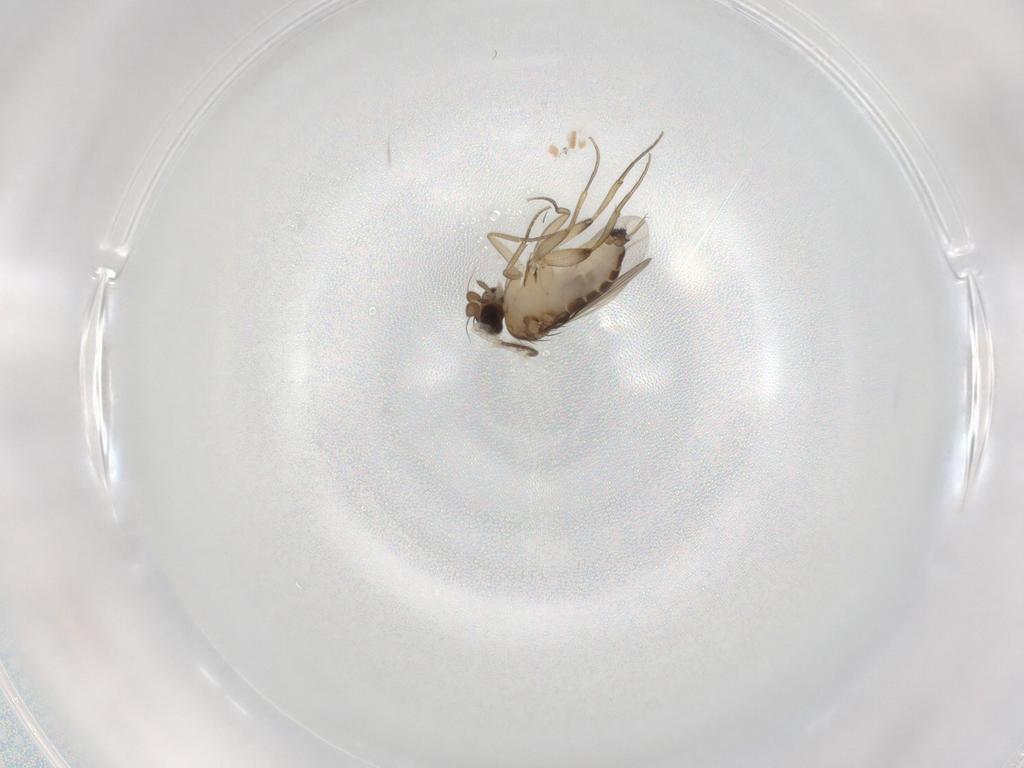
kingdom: Animalia
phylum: Arthropoda
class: Insecta
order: Diptera
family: Phoridae
